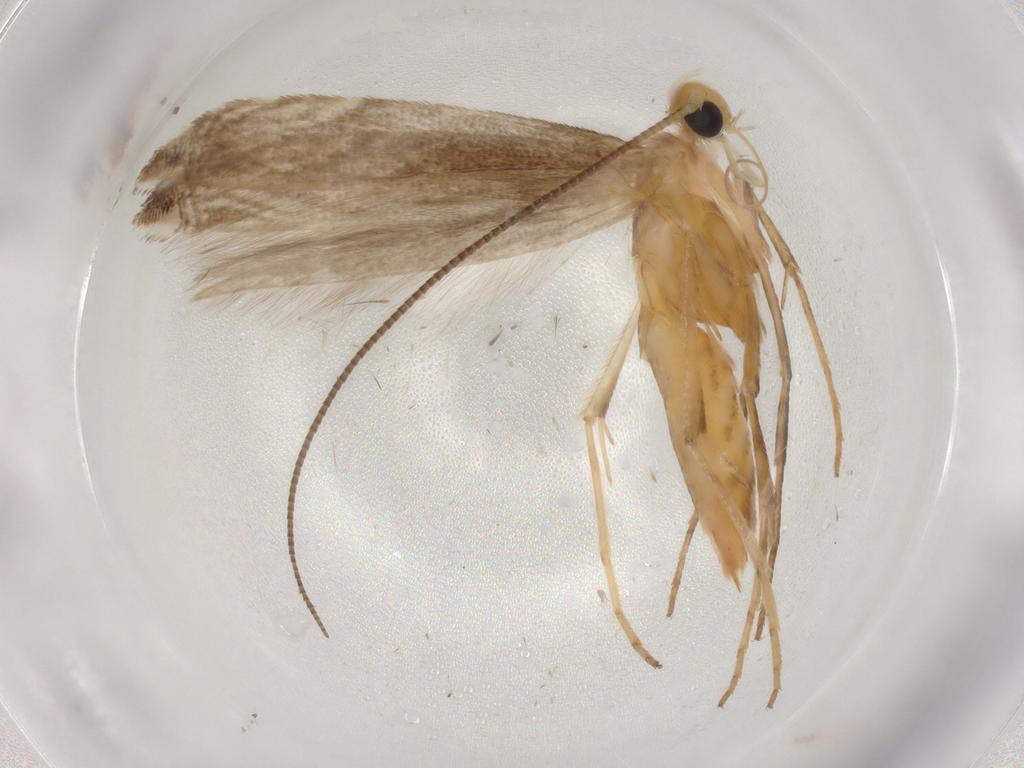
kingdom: Animalia
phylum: Arthropoda
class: Insecta
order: Lepidoptera
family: Gracillariidae
